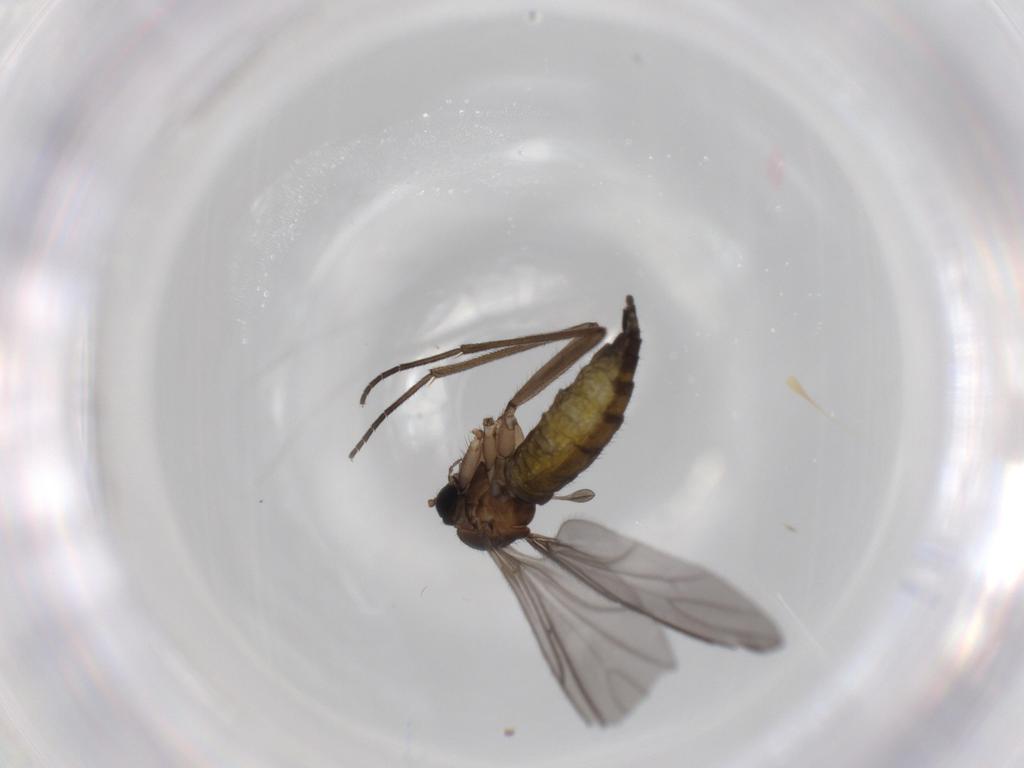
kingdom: Animalia
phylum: Arthropoda
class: Insecta
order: Diptera
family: Sciaridae
